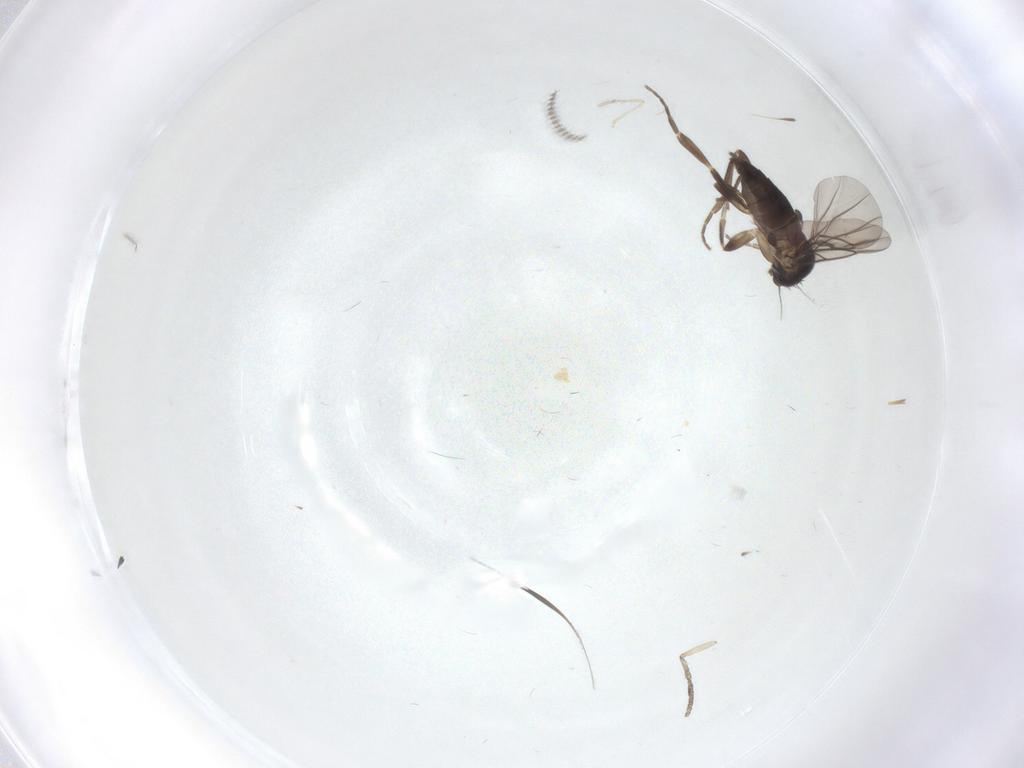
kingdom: Animalia
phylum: Arthropoda
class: Insecta
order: Diptera
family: Cecidomyiidae
